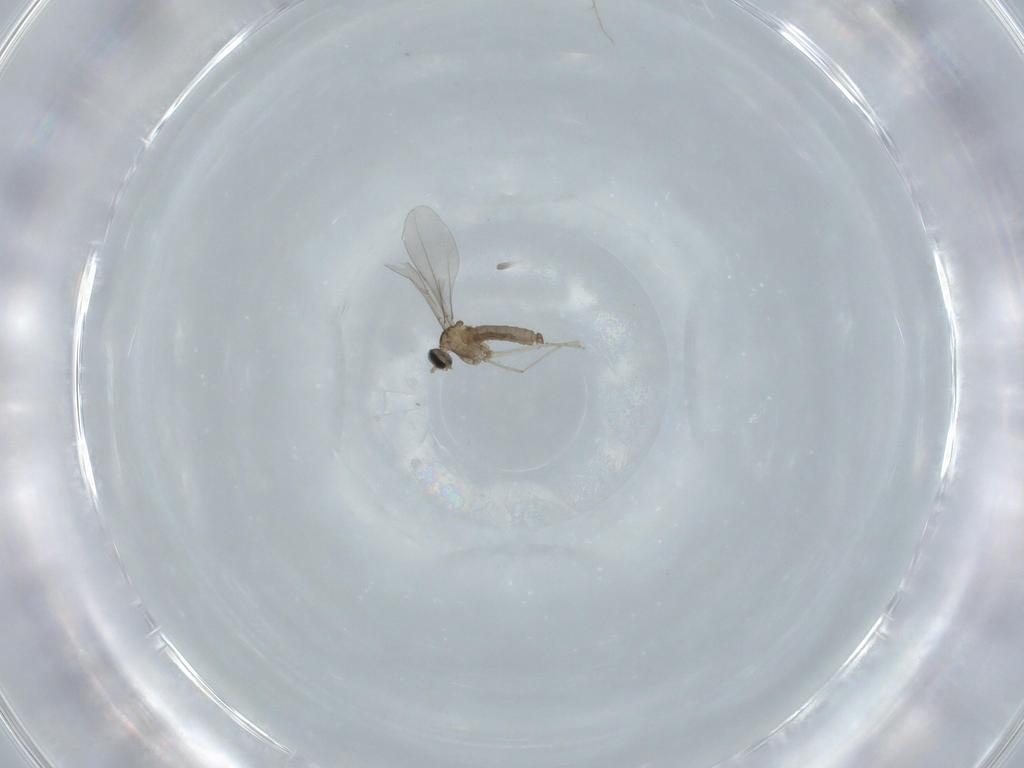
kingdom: Animalia
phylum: Arthropoda
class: Insecta
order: Diptera
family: Cecidomyiidae
